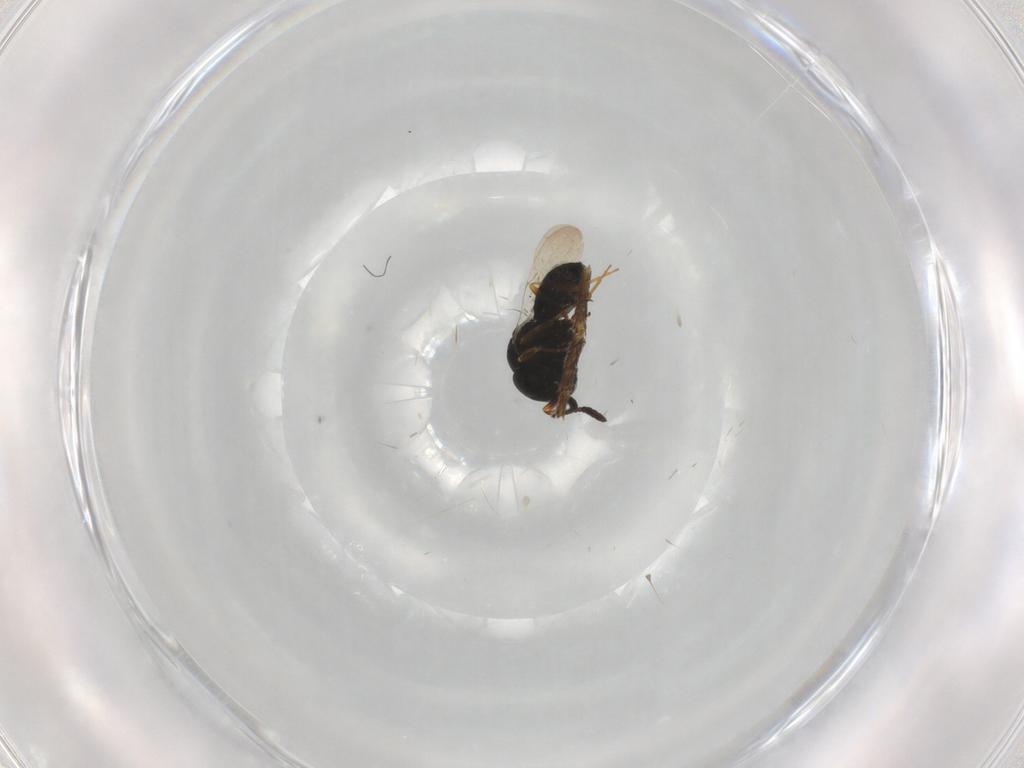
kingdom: Animalia
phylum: Arthropoda
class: Insecta
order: Hymenoptera
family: Scelionidae
